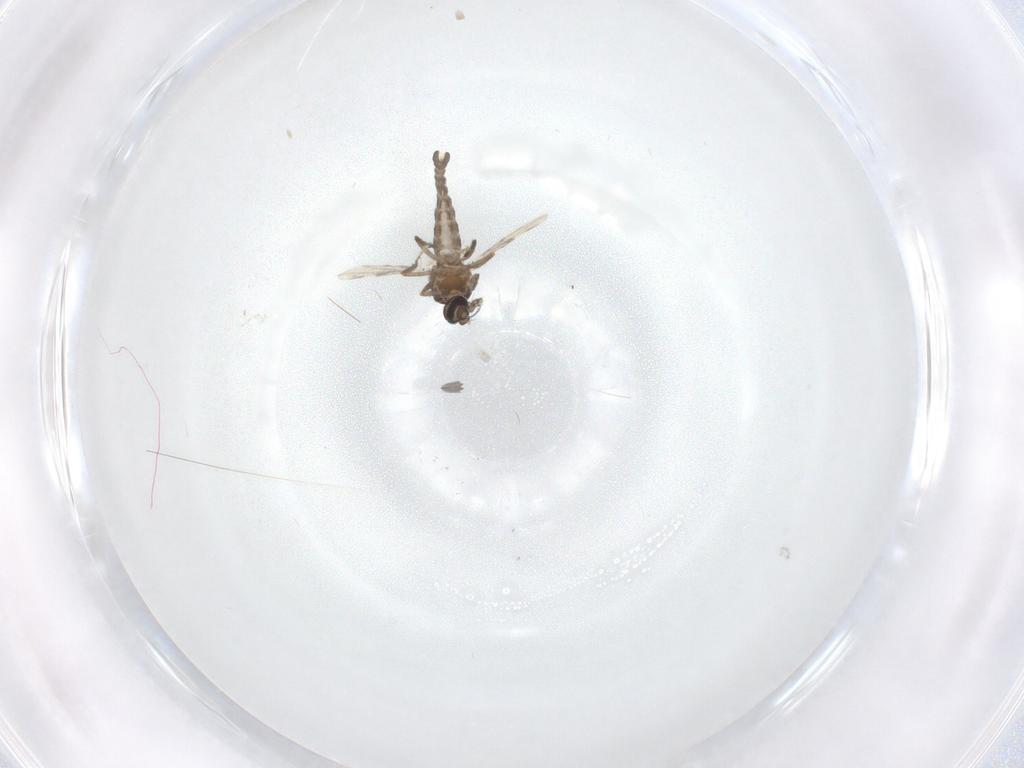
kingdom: Animalia
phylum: Arthropoda
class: Insecta
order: Diptera
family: Ceratopogonidae
